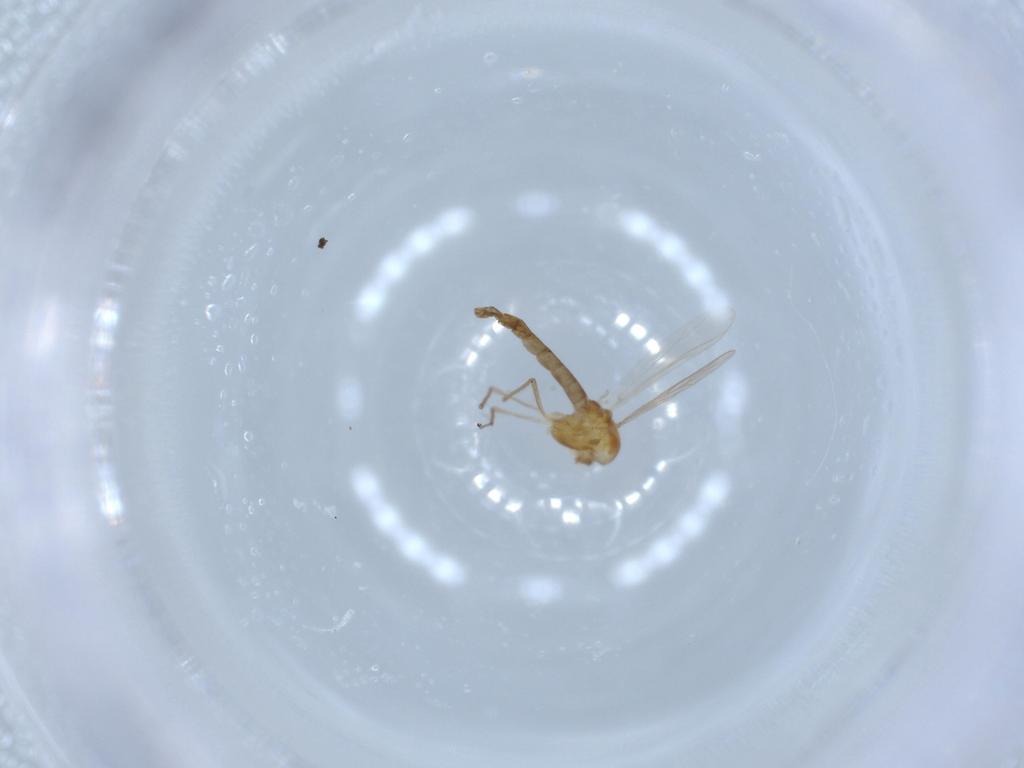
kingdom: Animalia
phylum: Arthropoda
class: Insecta
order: Diptera
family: Cecidomyiidae
